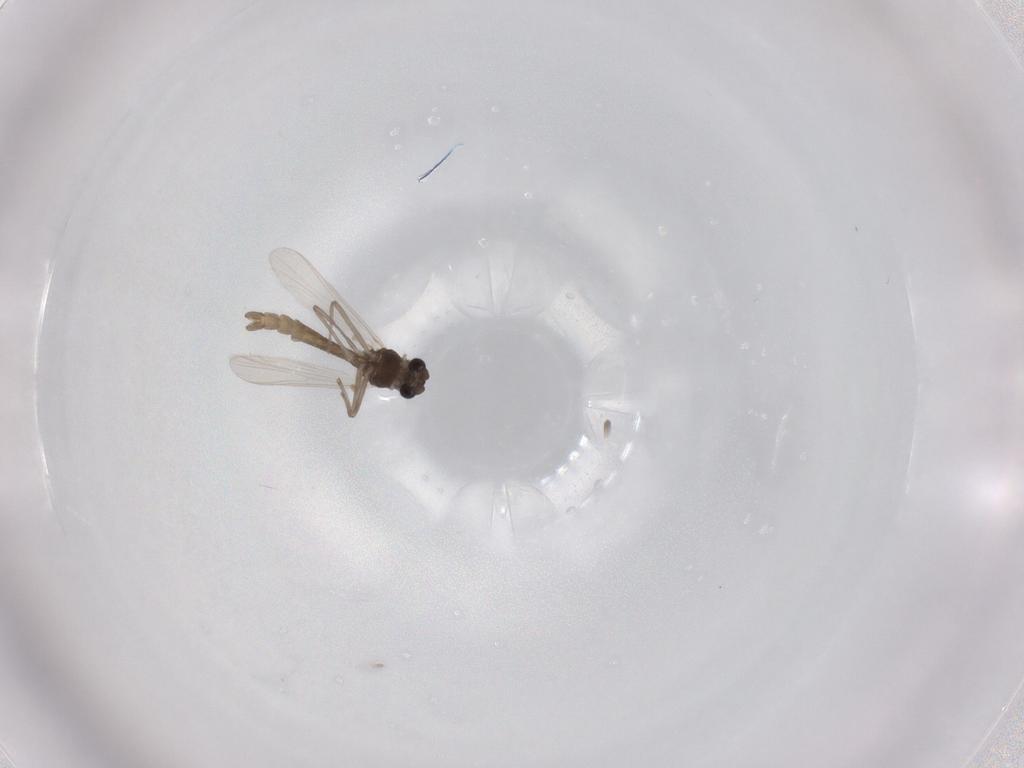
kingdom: Animalia
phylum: Arthropoda
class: Insecta
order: Diptera
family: Chironomidae
